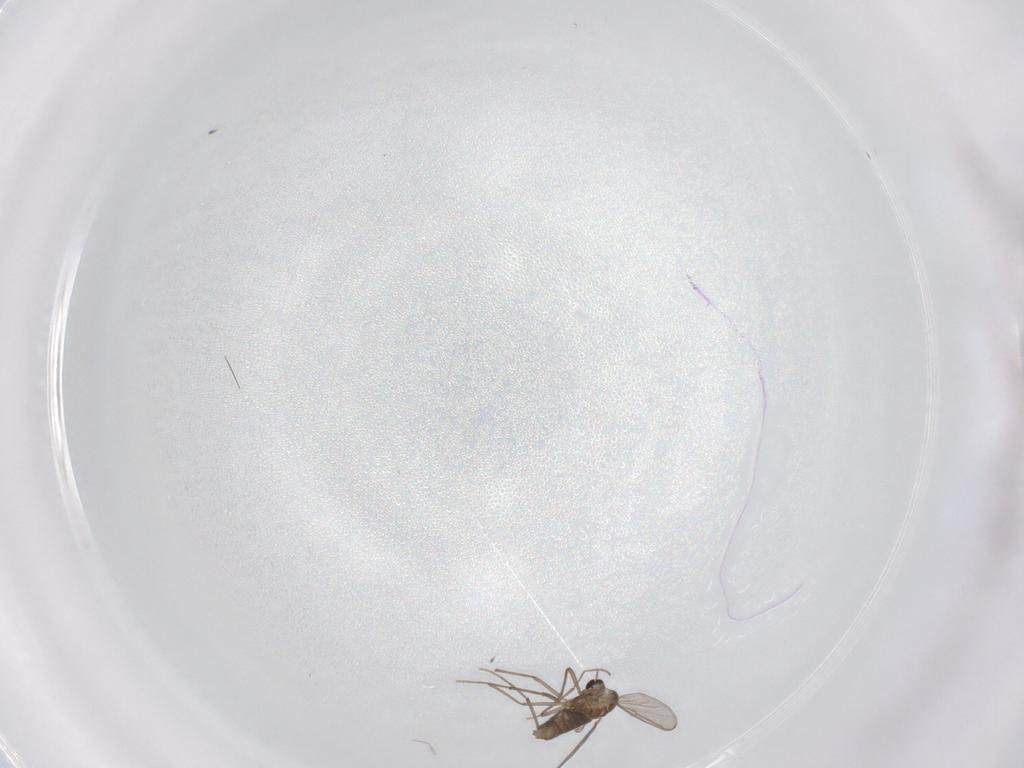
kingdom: Animalia
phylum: Arthropoda
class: Insecta
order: Diptera
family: Chironomidae
